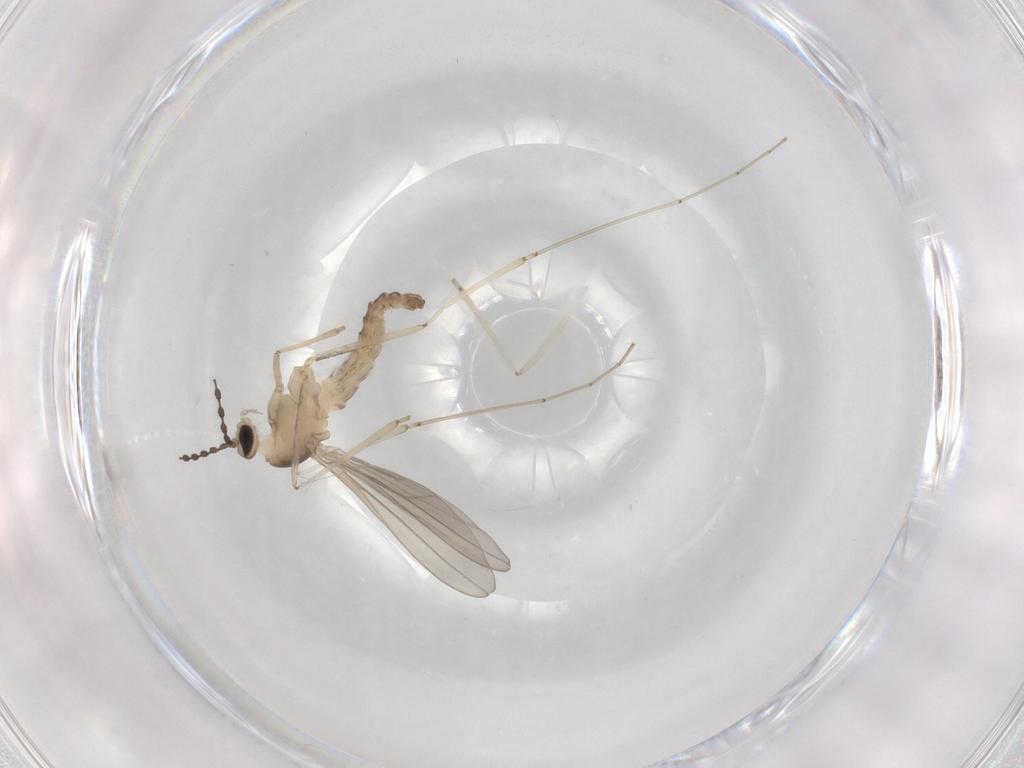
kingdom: Animalia
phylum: Arthropoda
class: Insecta
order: Diptera
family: Cecidomyiidae
